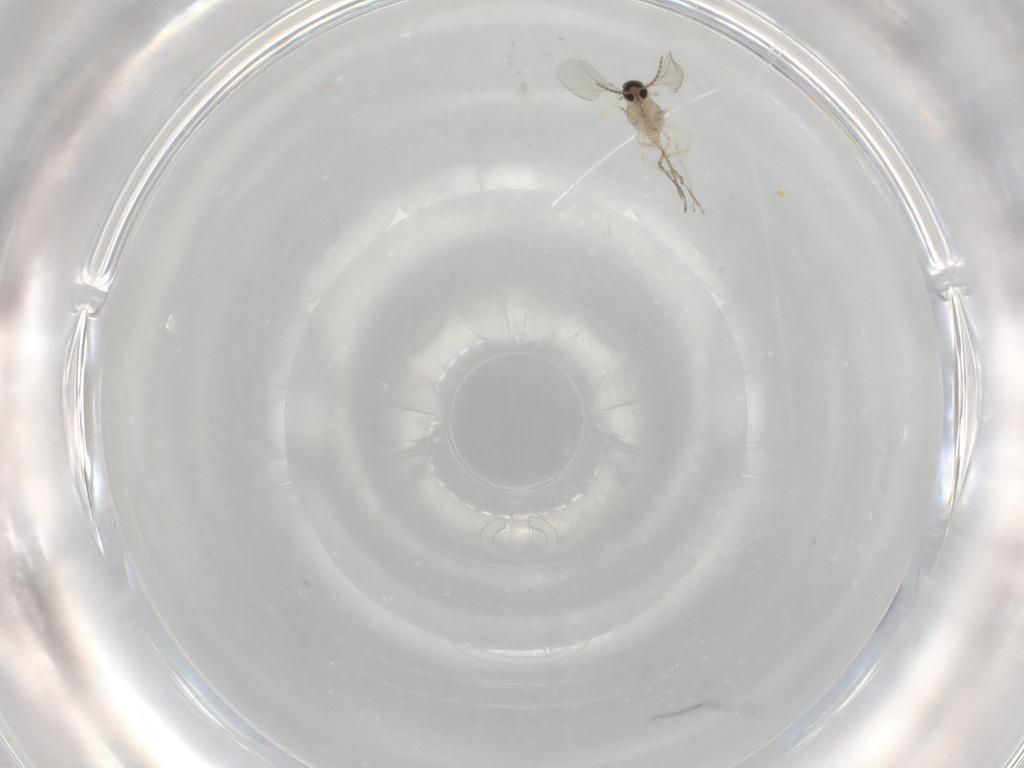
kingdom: Animalia
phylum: Arthropoda
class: Insecta
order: Diptera
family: Cecidomyiidae
